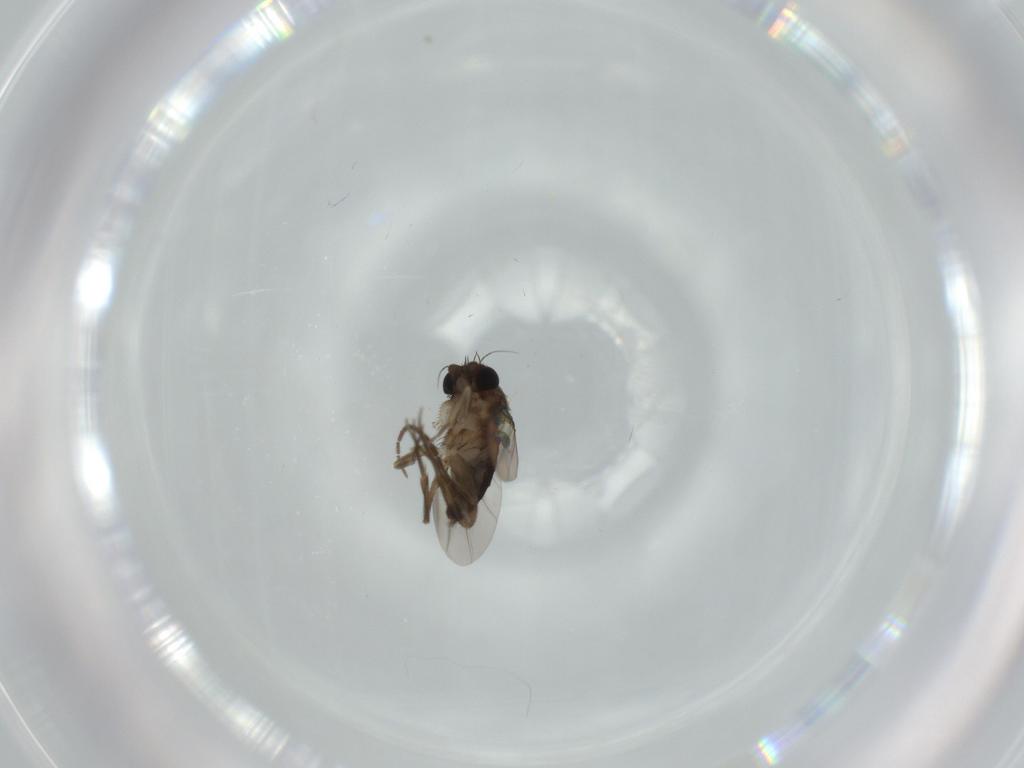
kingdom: Animalia
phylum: Arthropoda
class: Insecta
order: Diptera
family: Phoridae
